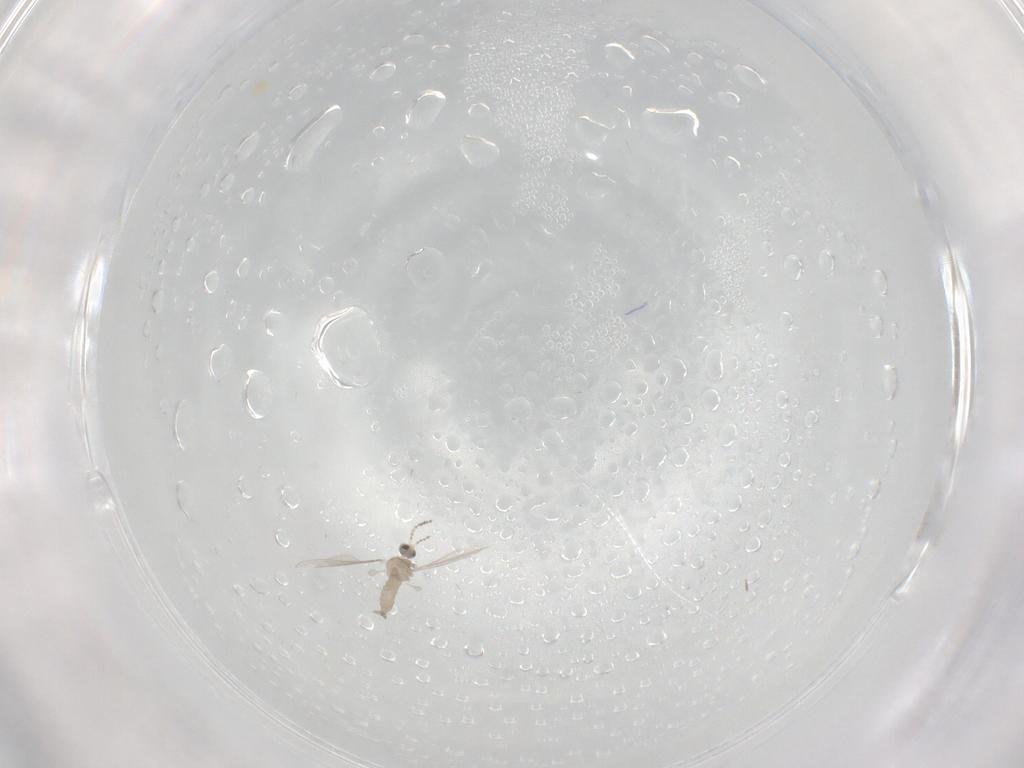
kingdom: Animalia
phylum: Arthropoda
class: Insecta
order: Diptera
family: Cecidomyiidae
